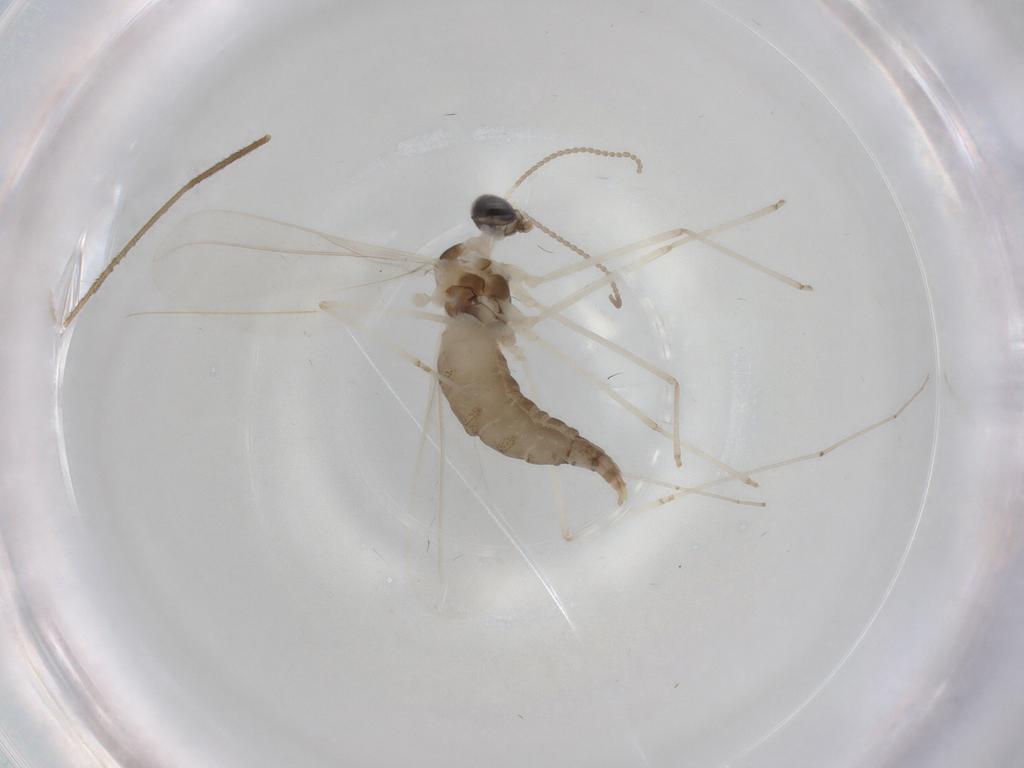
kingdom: Animalia
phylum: Arthropoda
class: Insecta
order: Diptera
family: Cecidomyiidae
